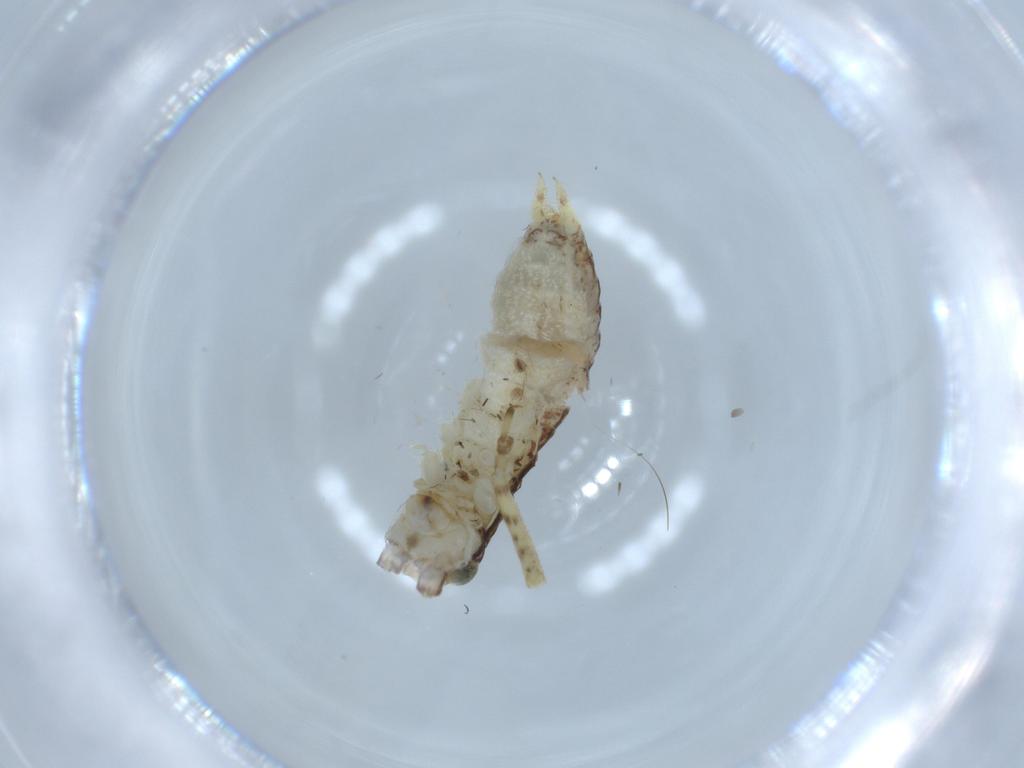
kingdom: Animalia
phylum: Arthropoda
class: Insecta
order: Orthoptera
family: Gryllidae
